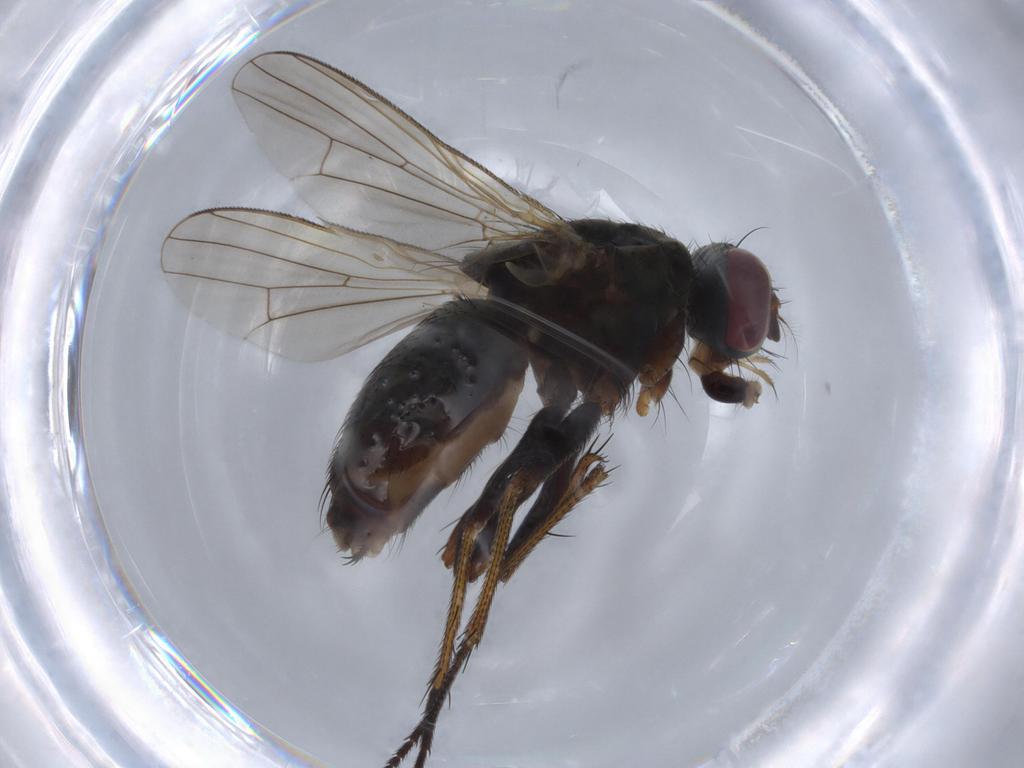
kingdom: Animalia
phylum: Arthropoda
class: Insecta
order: Diptera
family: Muscidae
